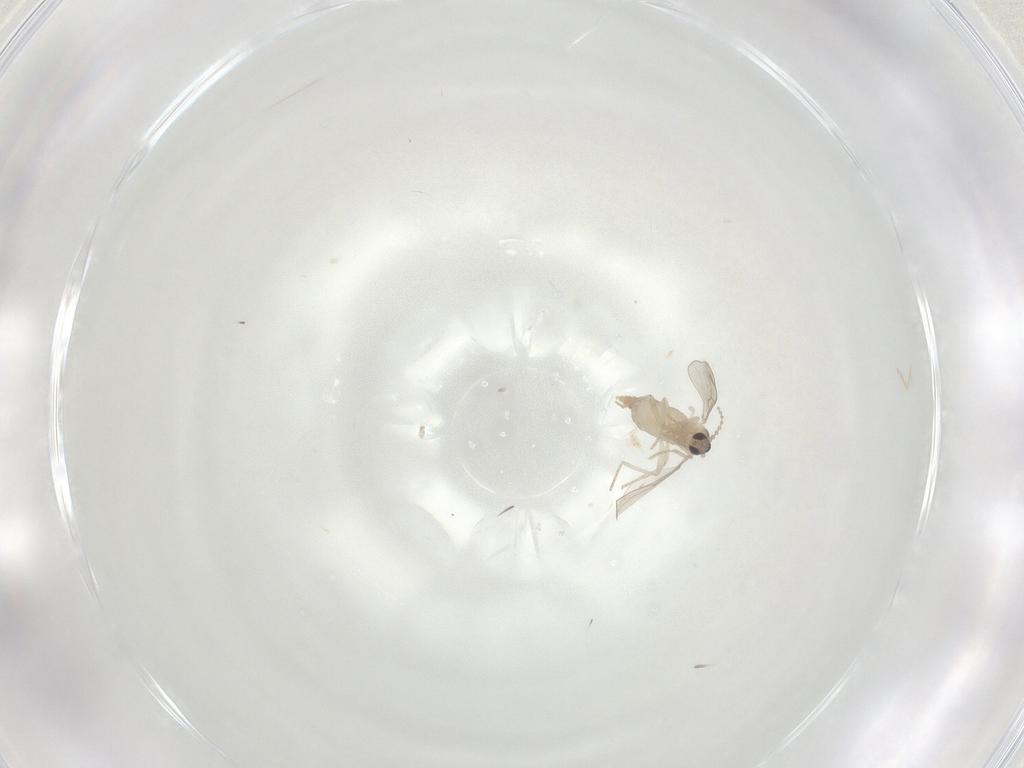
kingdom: Animalia
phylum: Arthropoda
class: Insecta
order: Diptera
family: Cecidomyiidae
